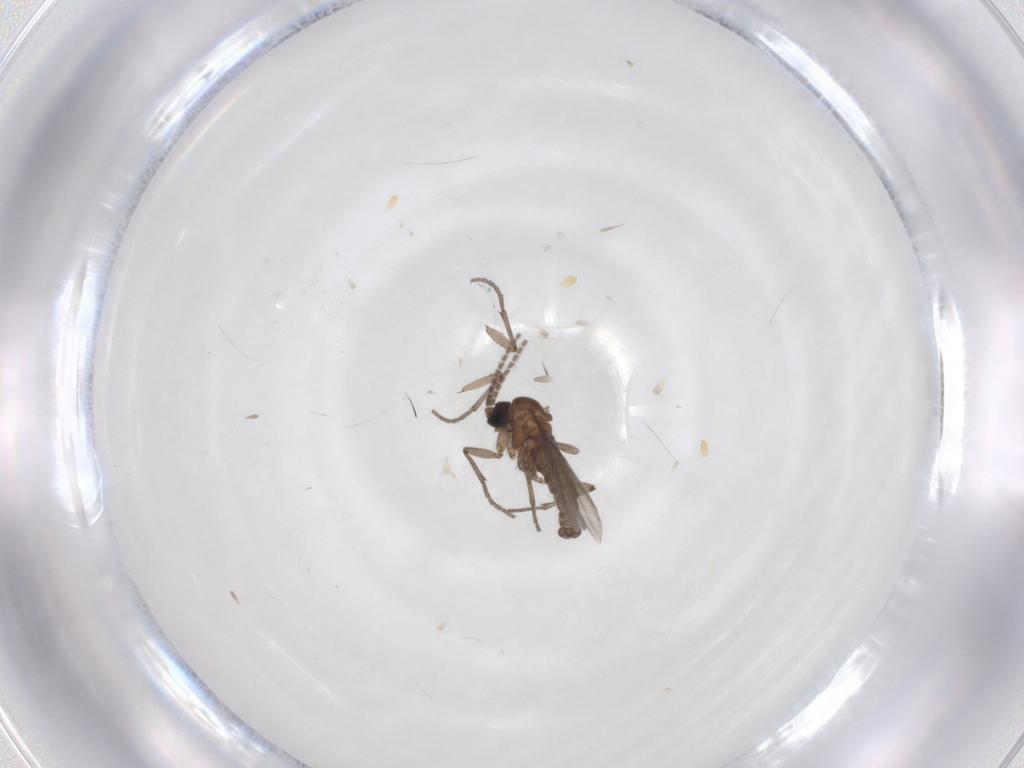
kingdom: Animalia
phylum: Arthropoda
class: Insecta
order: Diptera
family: Sciaridae
